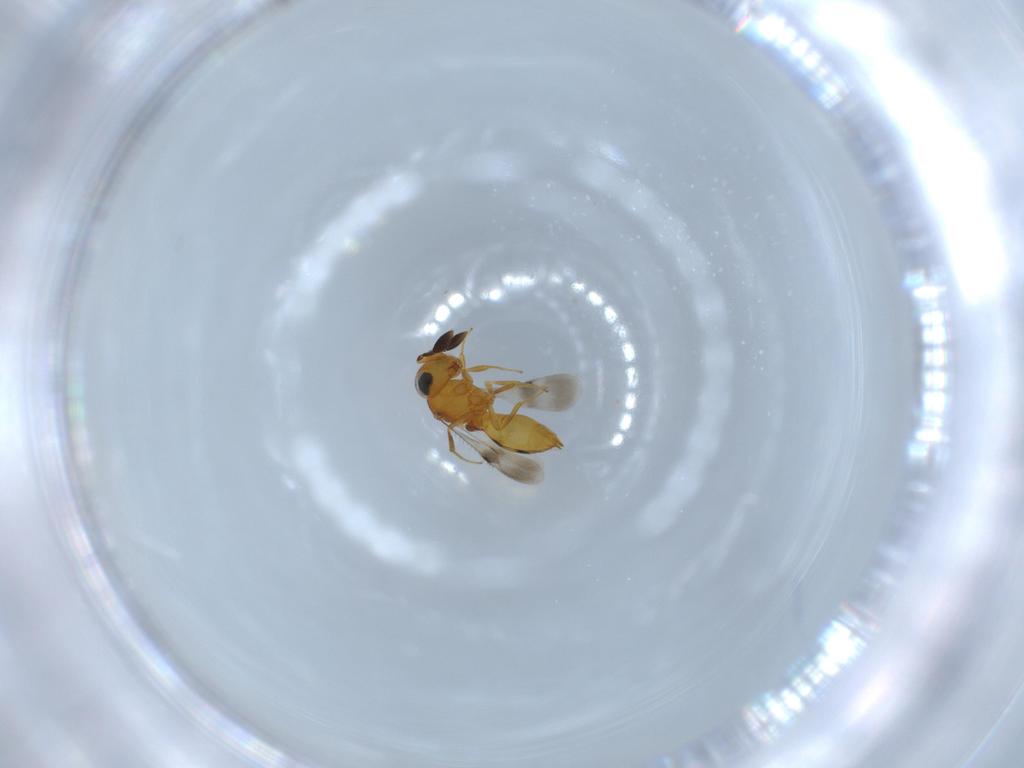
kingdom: Animalia
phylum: Arthropoda
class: Insecta
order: Hymenoptera
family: Scelionidae
